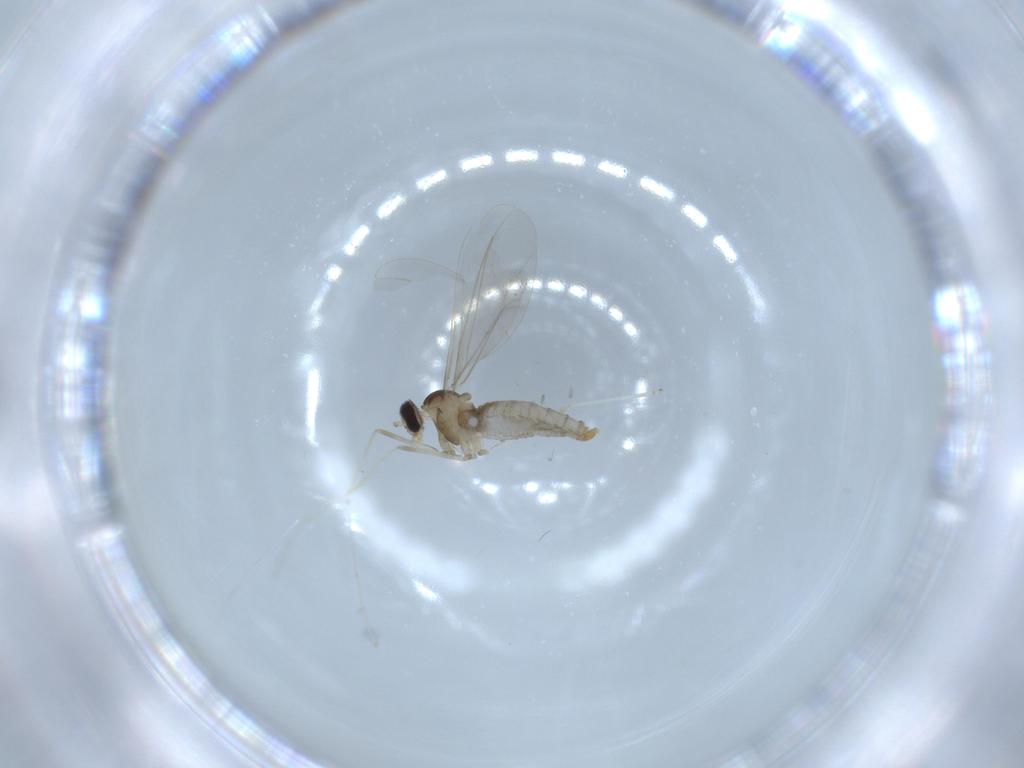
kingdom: Animalia
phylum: Arthropoda
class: Insecta
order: Diptera
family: Cecidomyiidae
